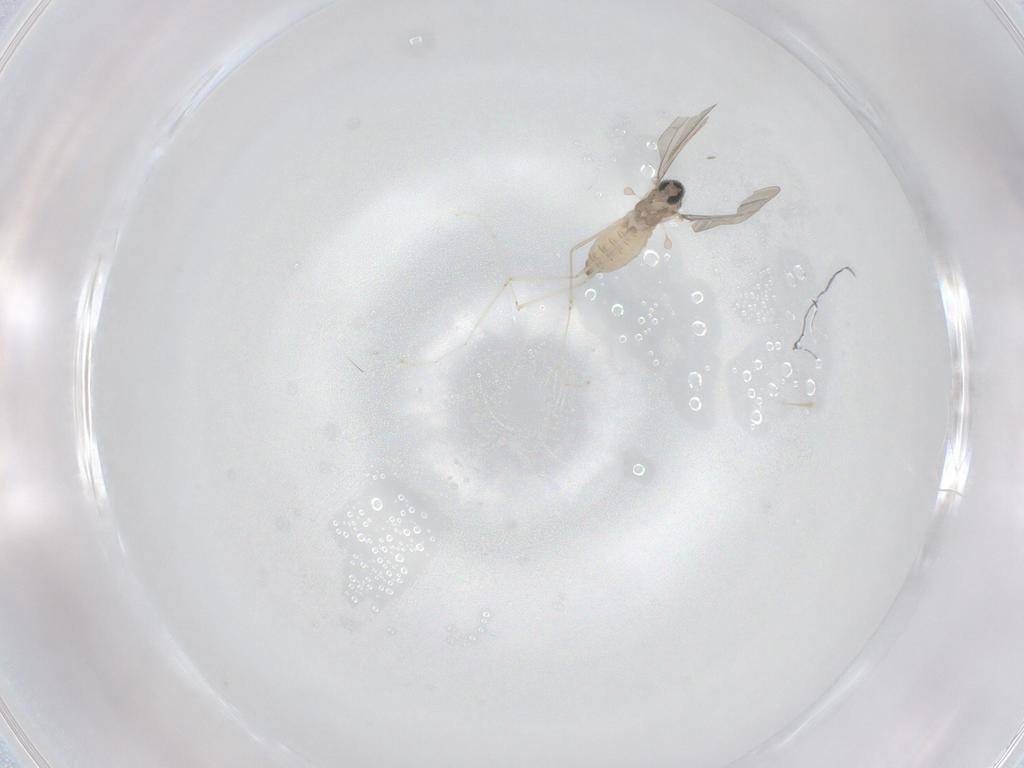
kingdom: Animalia
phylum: Arthropoda
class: Insecta
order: Diptera
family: Cecidomyiidae
